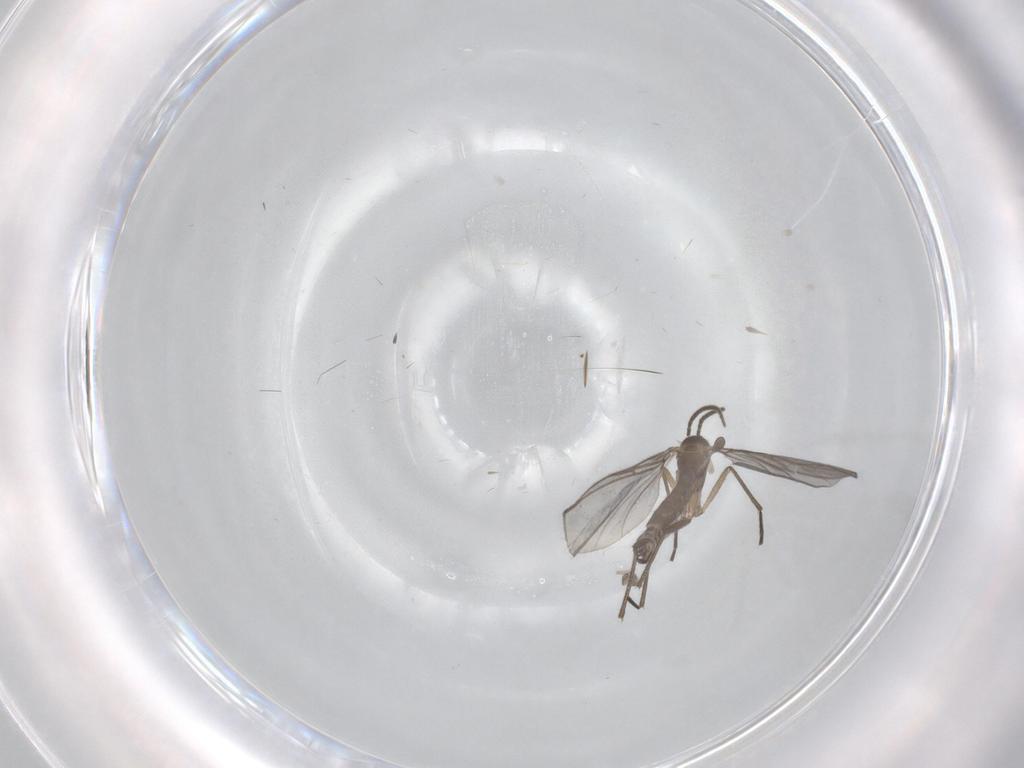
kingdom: Animalia
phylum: Arthropoda
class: Insecta
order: Diptera
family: Sciaridae
